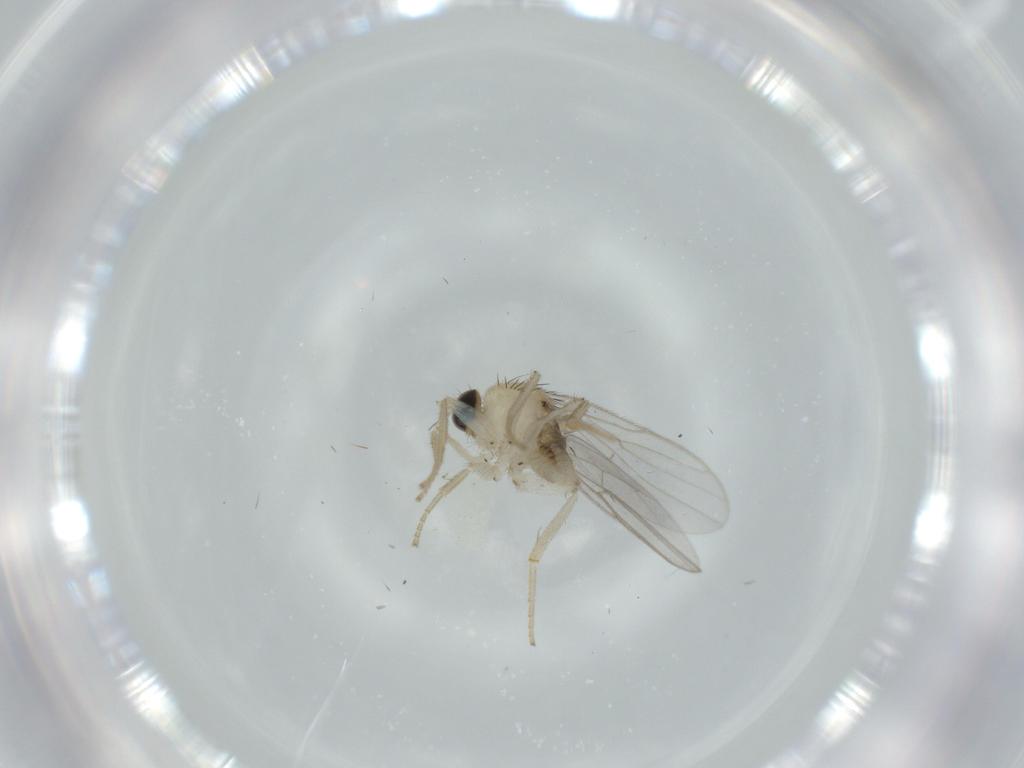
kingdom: Animalia
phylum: Arthropoda
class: Insecta
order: Diptera
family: Hybotidae
